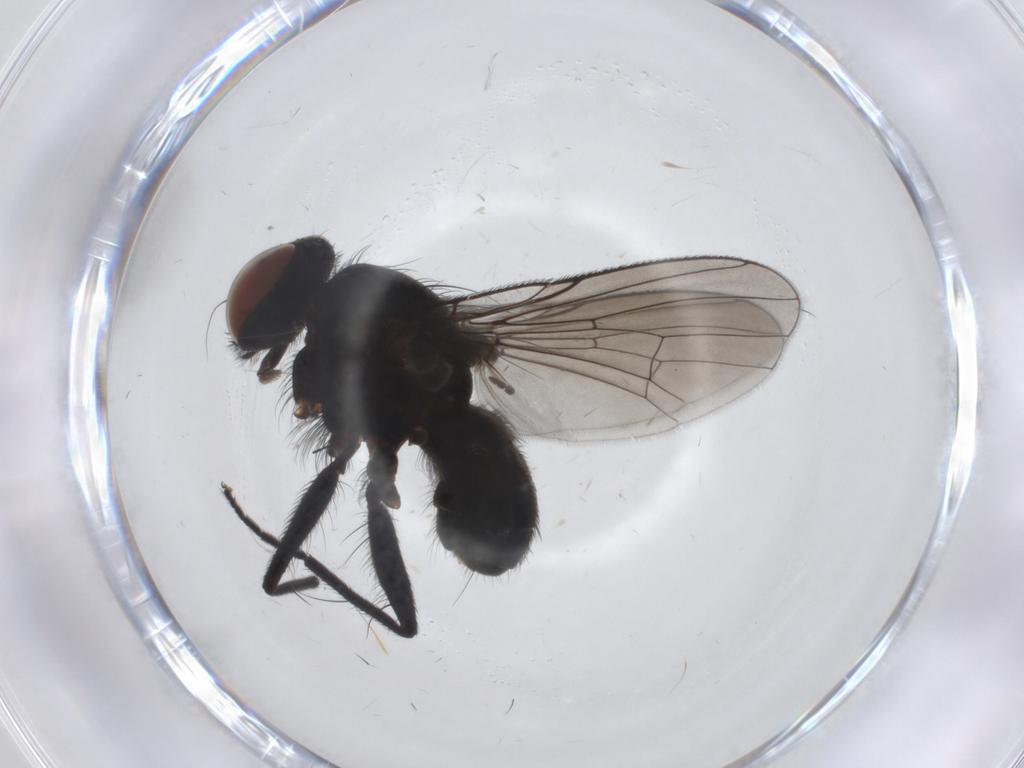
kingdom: Animalia
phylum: Arthropoda
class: Insecta
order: Diptera
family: Muscidae
